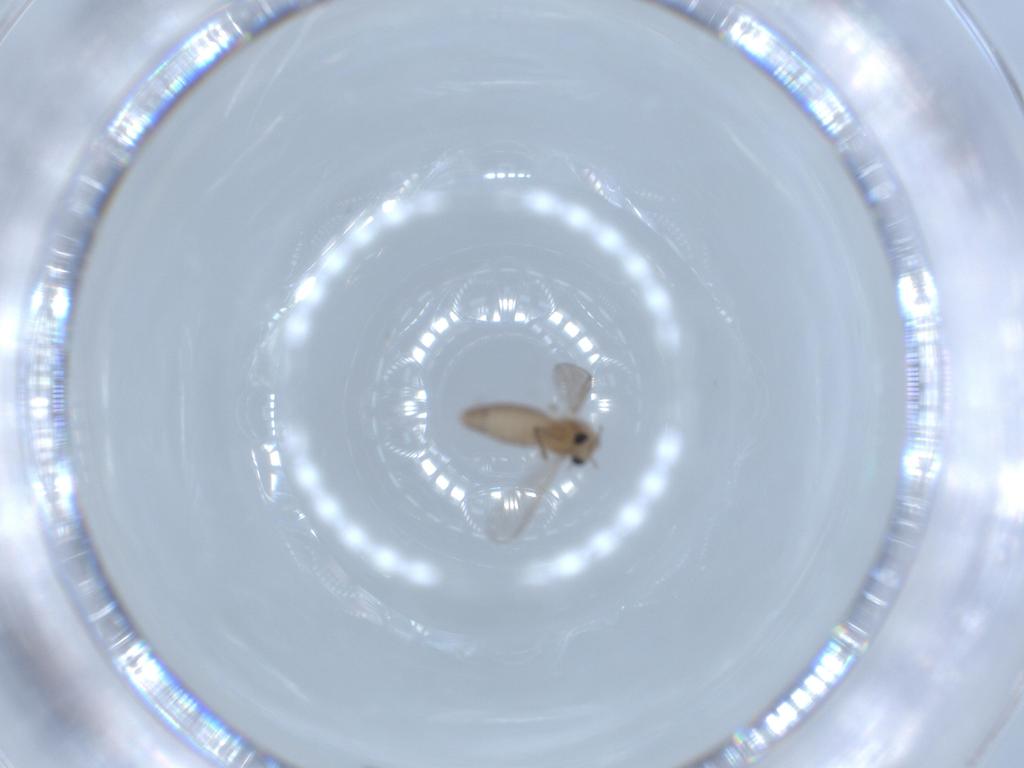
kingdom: Animalia
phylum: Arthropoda
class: Insecta
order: Diptera
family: Chironomidae
